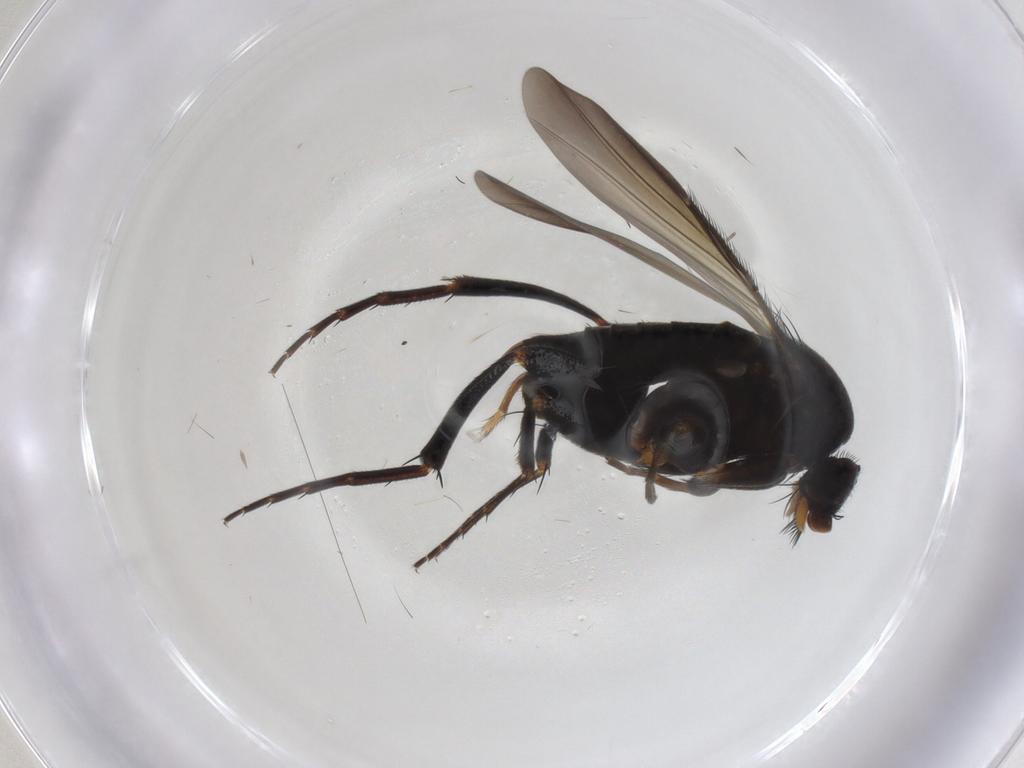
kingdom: Animalia
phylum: Arthropoda
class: Insecta
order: Diptera
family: Phoridae
